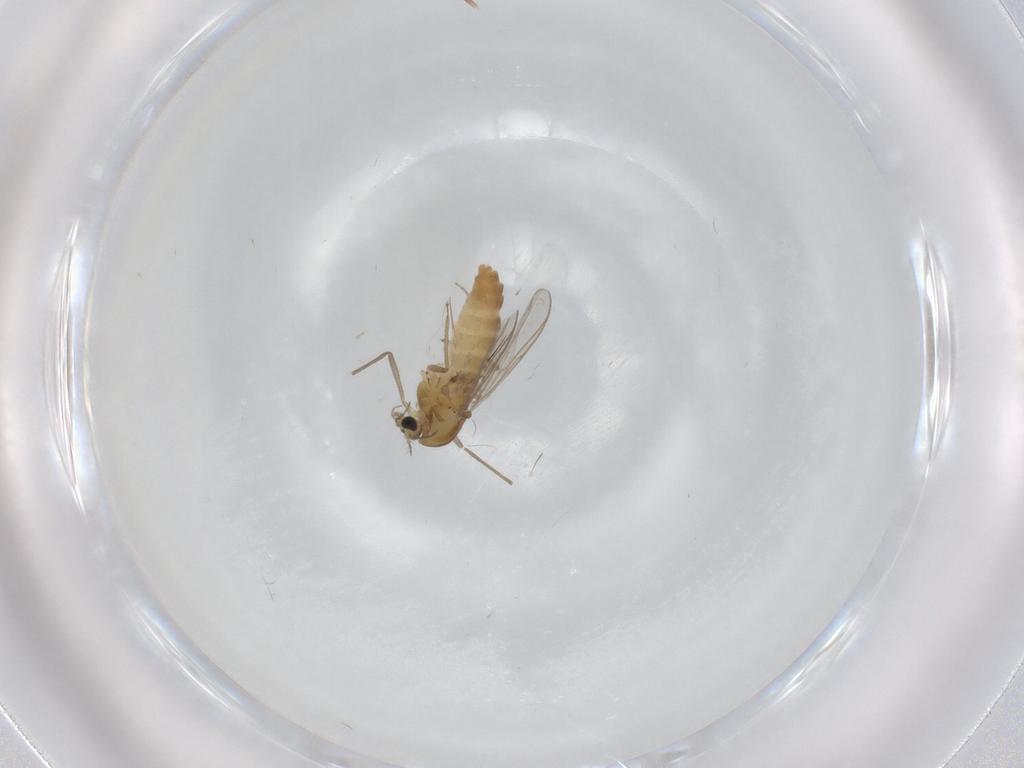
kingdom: Animalia
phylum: Arthropoda
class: Insecta
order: Diptera
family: Chironomidae
